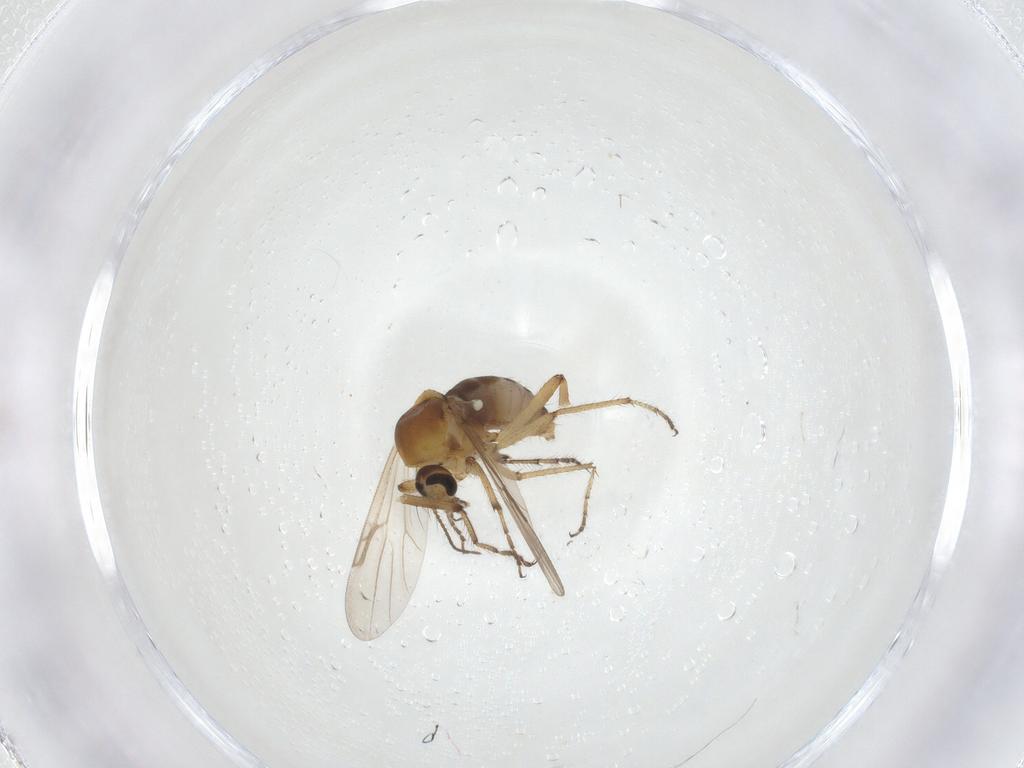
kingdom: Animalia
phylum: Arthropoda
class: Insecta
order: Diptera
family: Ceratopogonidae
